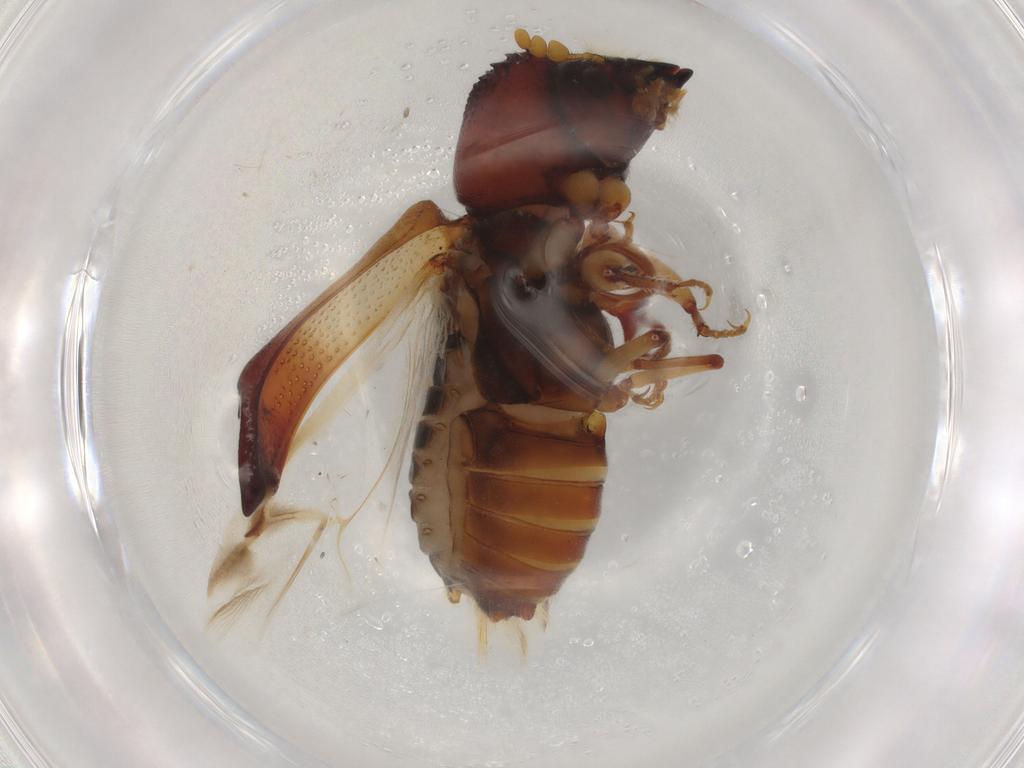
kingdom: Animalia
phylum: Arthropoda
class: Insecta
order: Coleoptera
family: Bostrichidae
